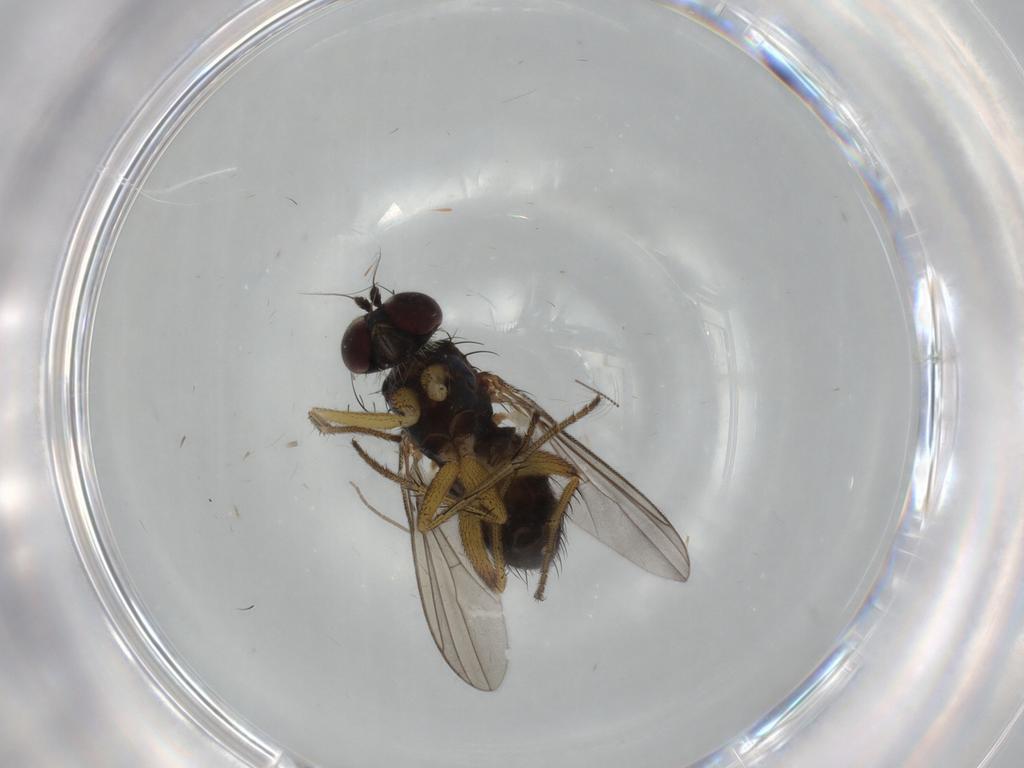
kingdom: Animalia
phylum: Arthropoda
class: Insecta
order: Diptera
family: Dolichopodidae
